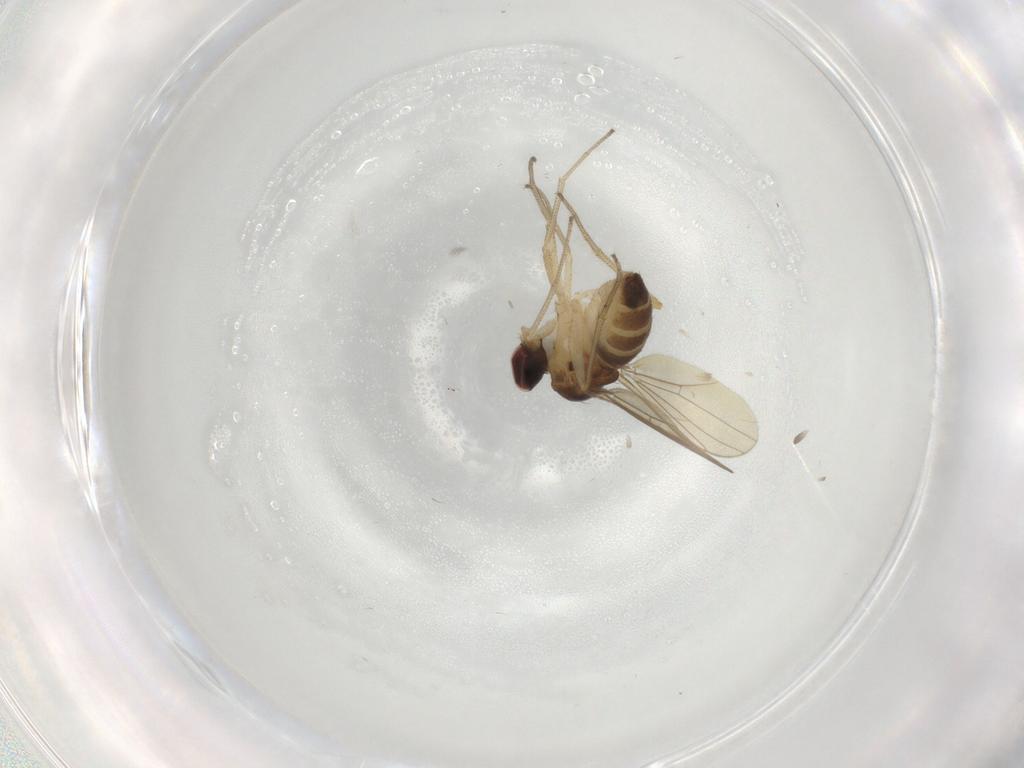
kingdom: Animalia
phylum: Arthropoda
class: Insecta
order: Diptera
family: Dolichopodidae
